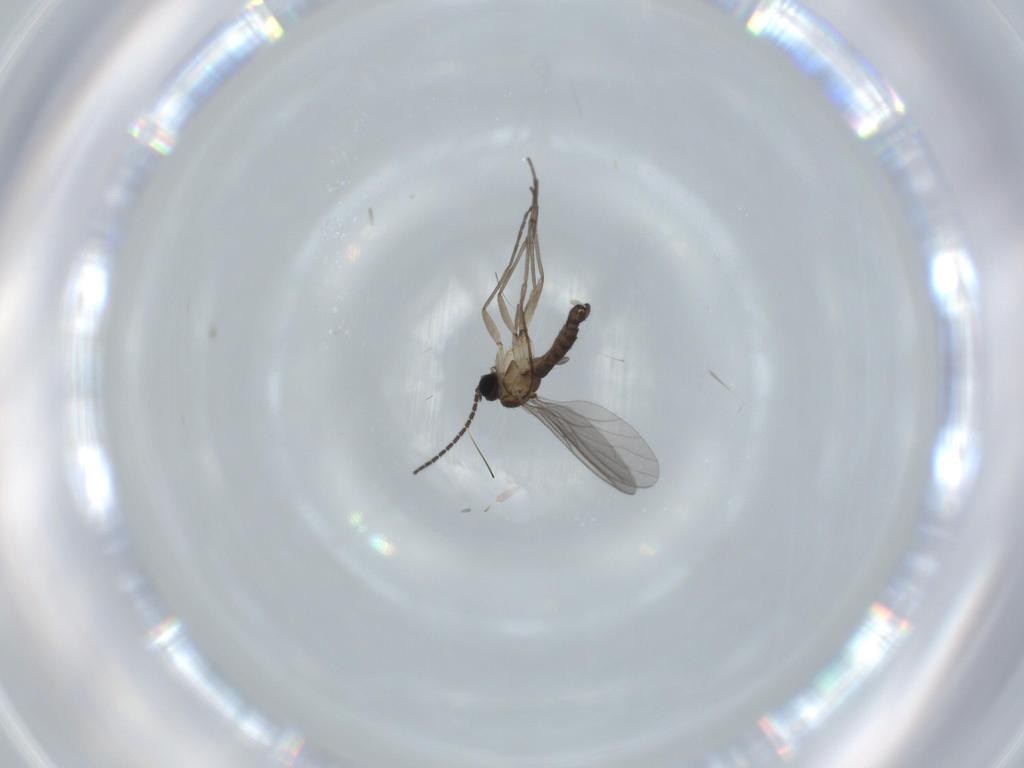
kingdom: Animalia
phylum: Arthropoda
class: Insecta
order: Diptera
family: Sciaridae
